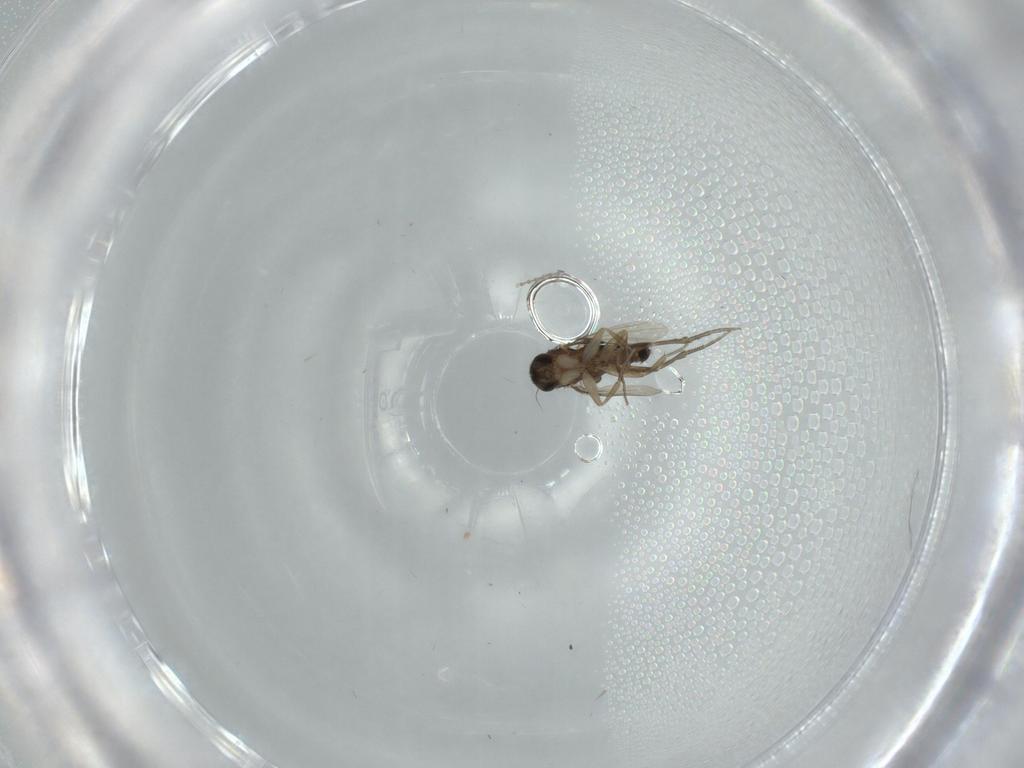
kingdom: Animalia
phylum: Arthropoda
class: Insecta
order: Diptera
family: Phoridae
